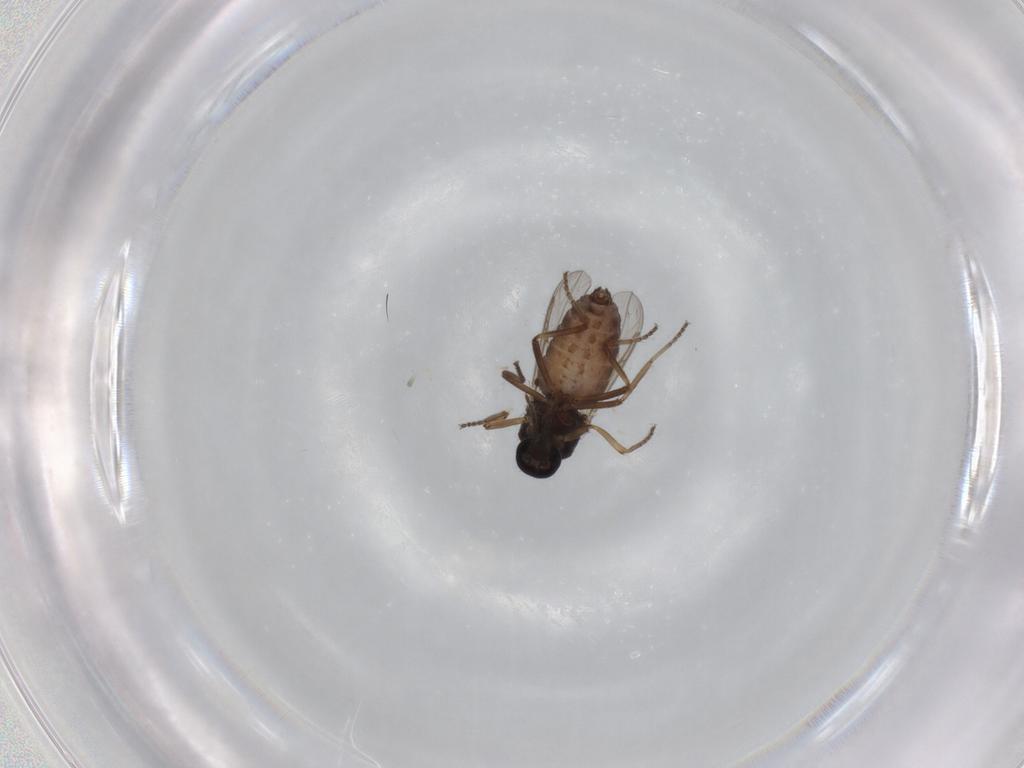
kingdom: Animalia
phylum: Arthropoda
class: Insecta
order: Diptera
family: Ceratopogonidae
